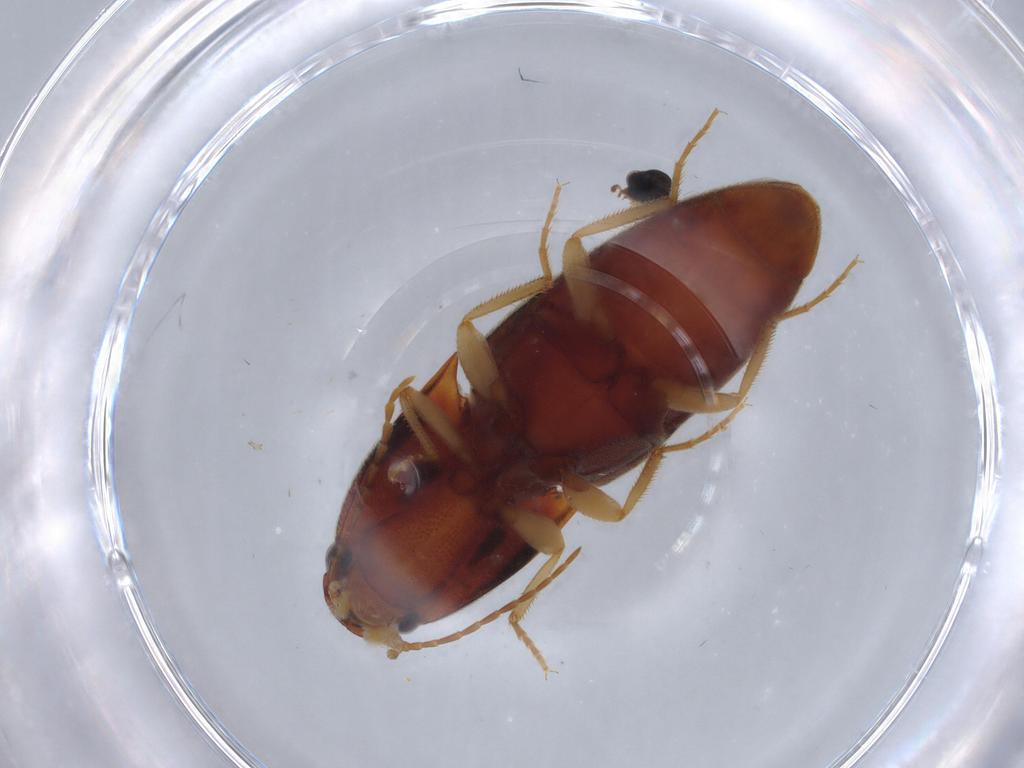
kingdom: Animalia
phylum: Arthropoda
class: Insecta
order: Coleoptera
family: Elateridae
